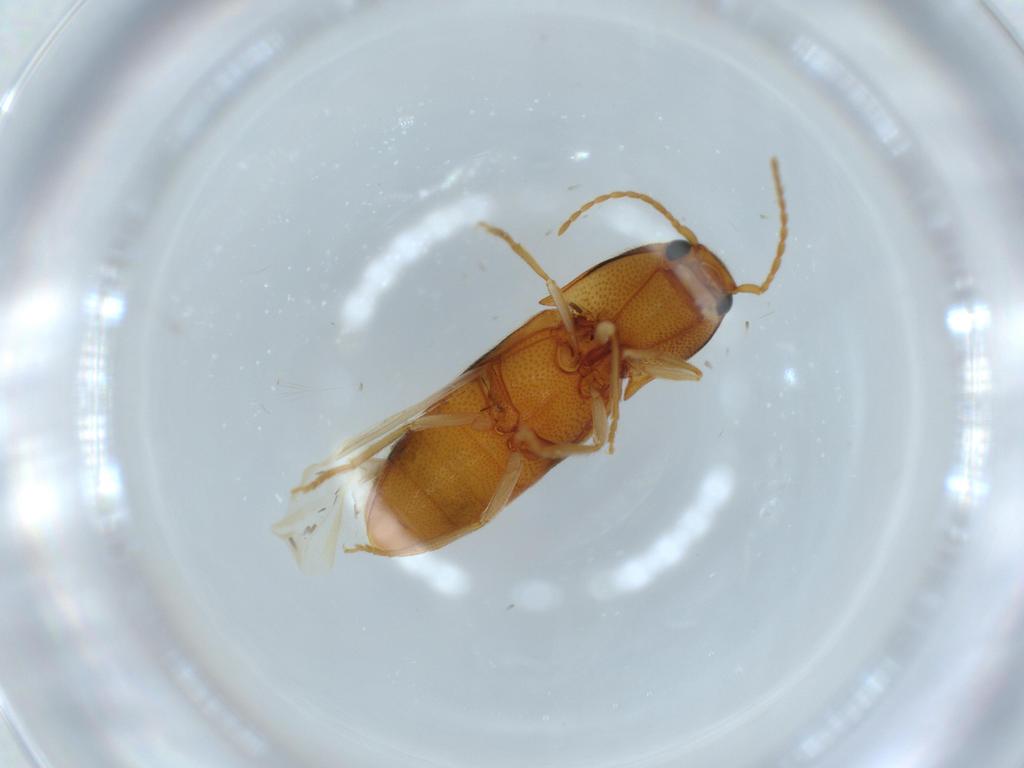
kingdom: Animalia
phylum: Arthropoda
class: Insecta
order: Coleoptera
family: Elateridae
